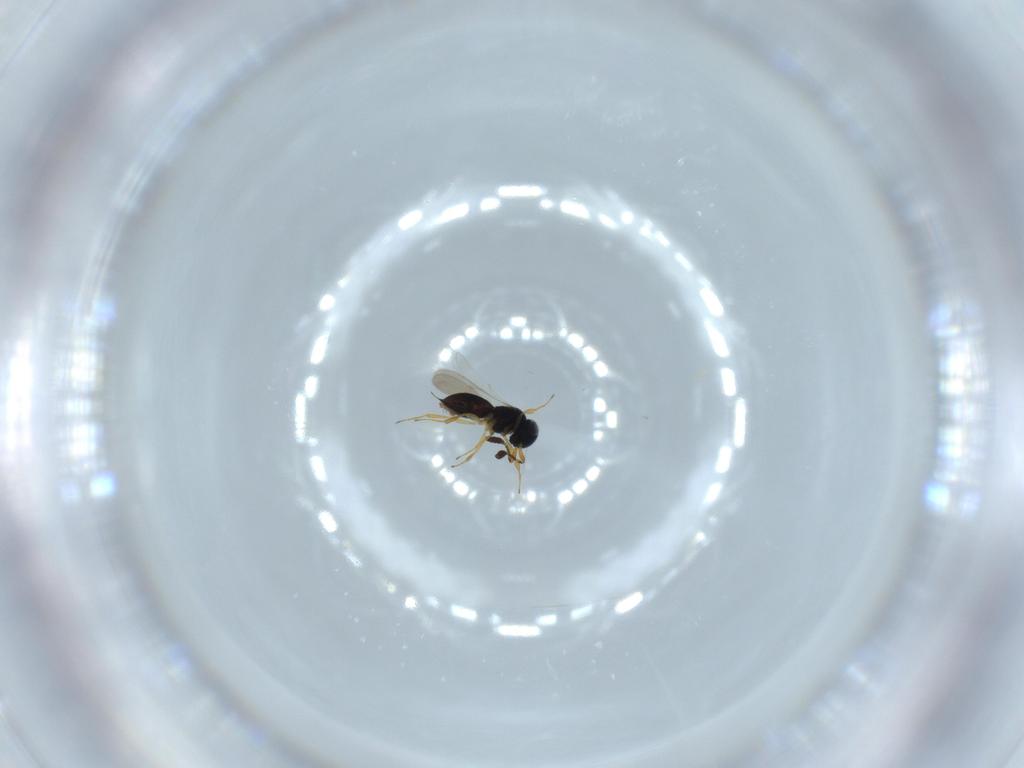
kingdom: Animalia
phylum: Arthropoda
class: Insecta
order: Hymenoptera
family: Scelionidae
